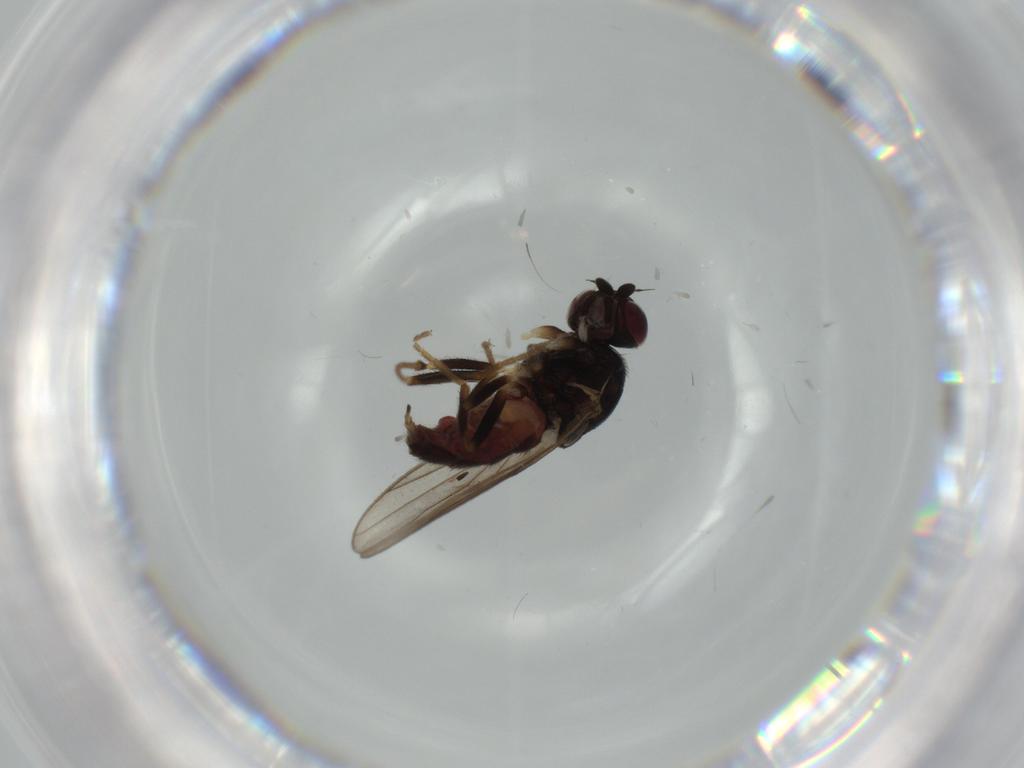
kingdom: Animalia
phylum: Arthropoda
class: Insecta
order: Diptera
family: Chloropidae
